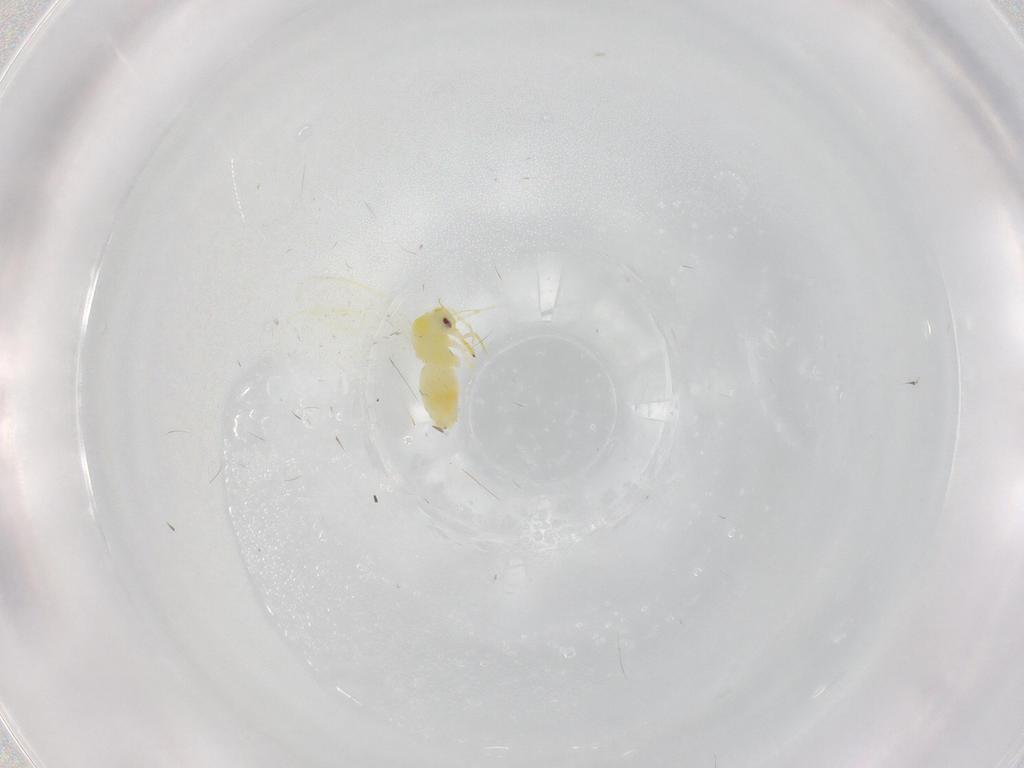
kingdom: Animalia
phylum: Arthropoda
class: Insecta
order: Hemiptera
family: Aleyrodidae
